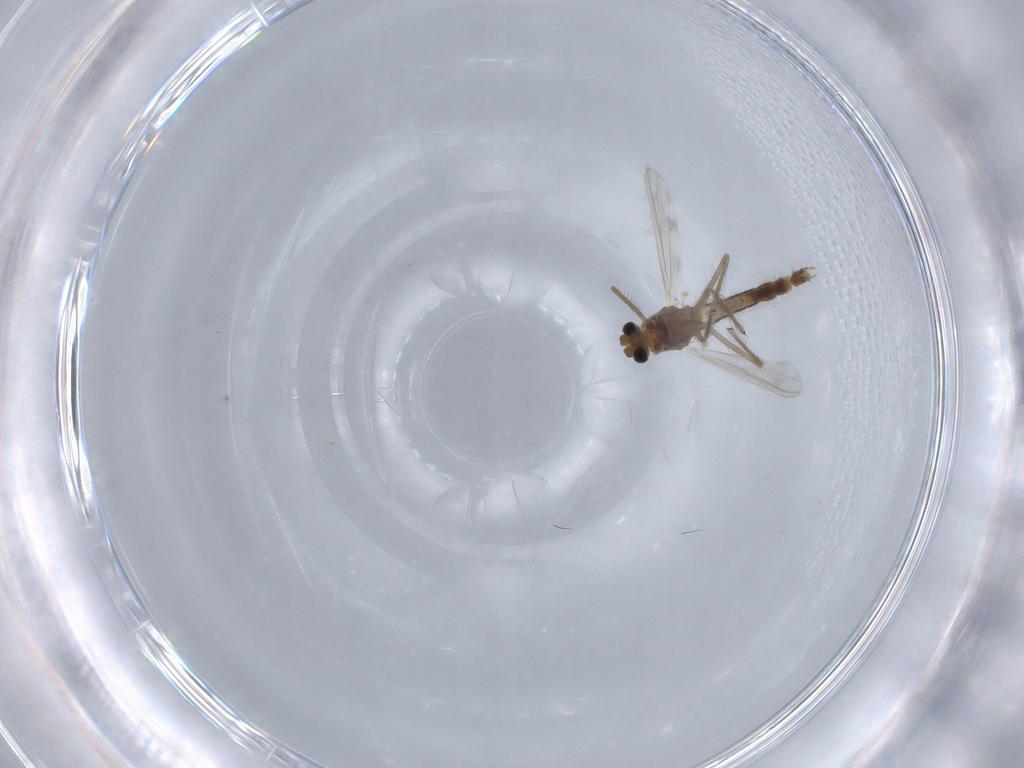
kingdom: Animalia
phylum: Arthropoda
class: Insecta
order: Diptera
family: Chironomidae
